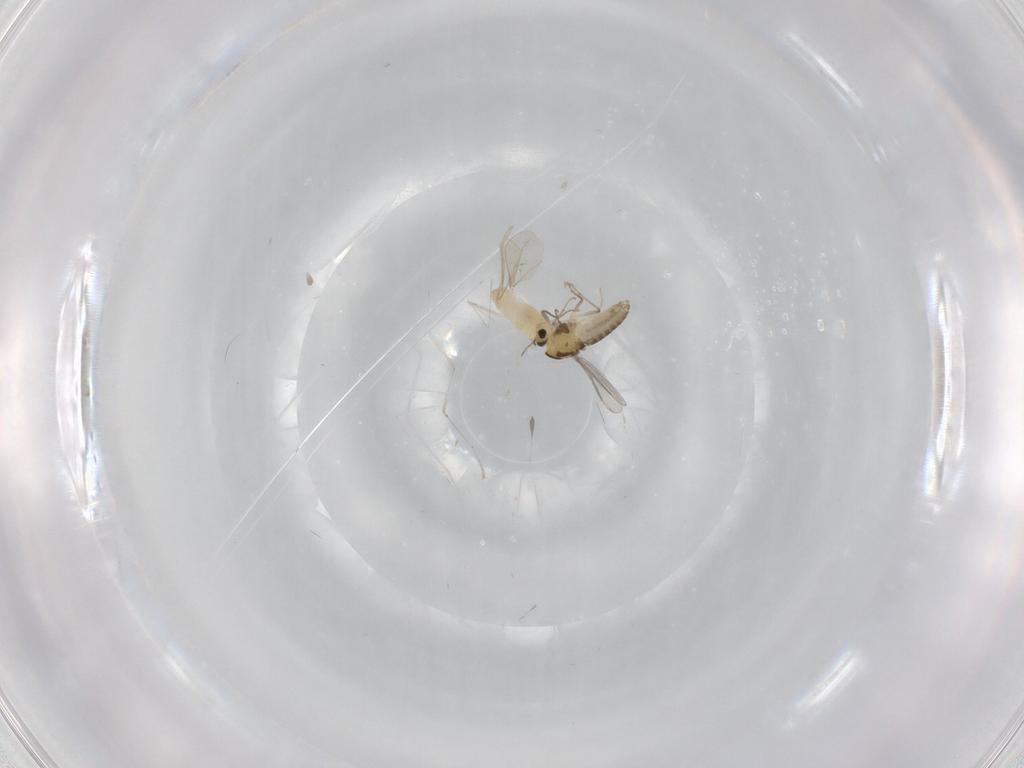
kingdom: Animalia
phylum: Arthropoda
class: Insecta
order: Diptera
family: Cecidomyiidae
